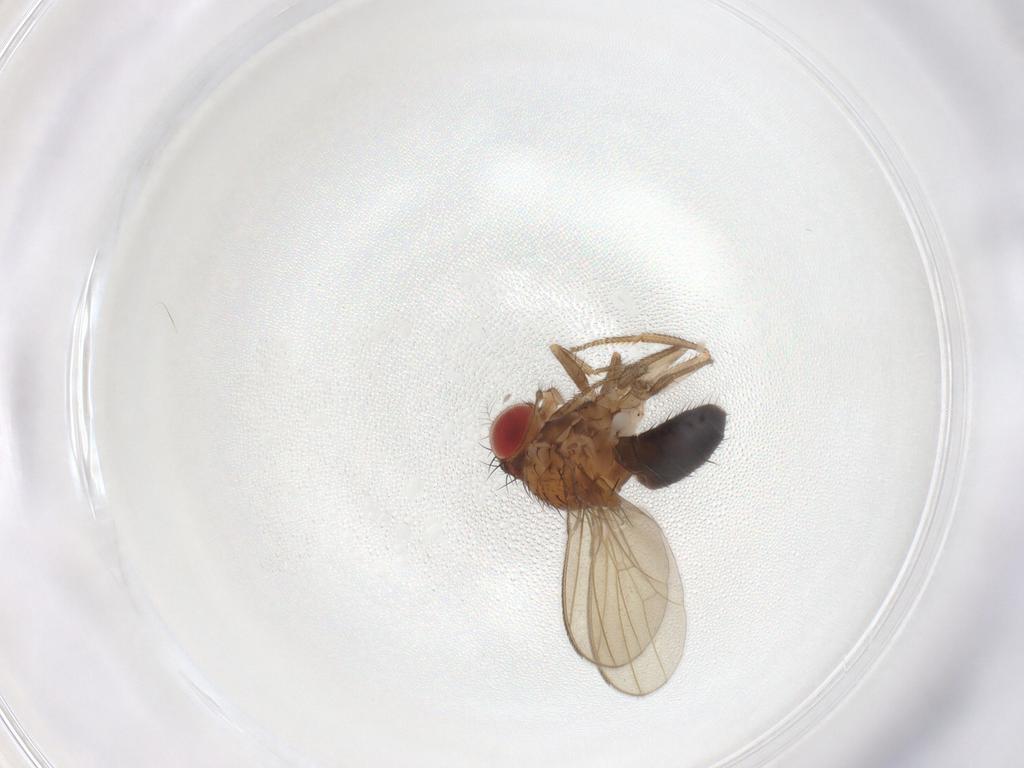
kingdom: Animalia
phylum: Arthropoda
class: Insecta
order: Diptera
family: Drosophilidae
